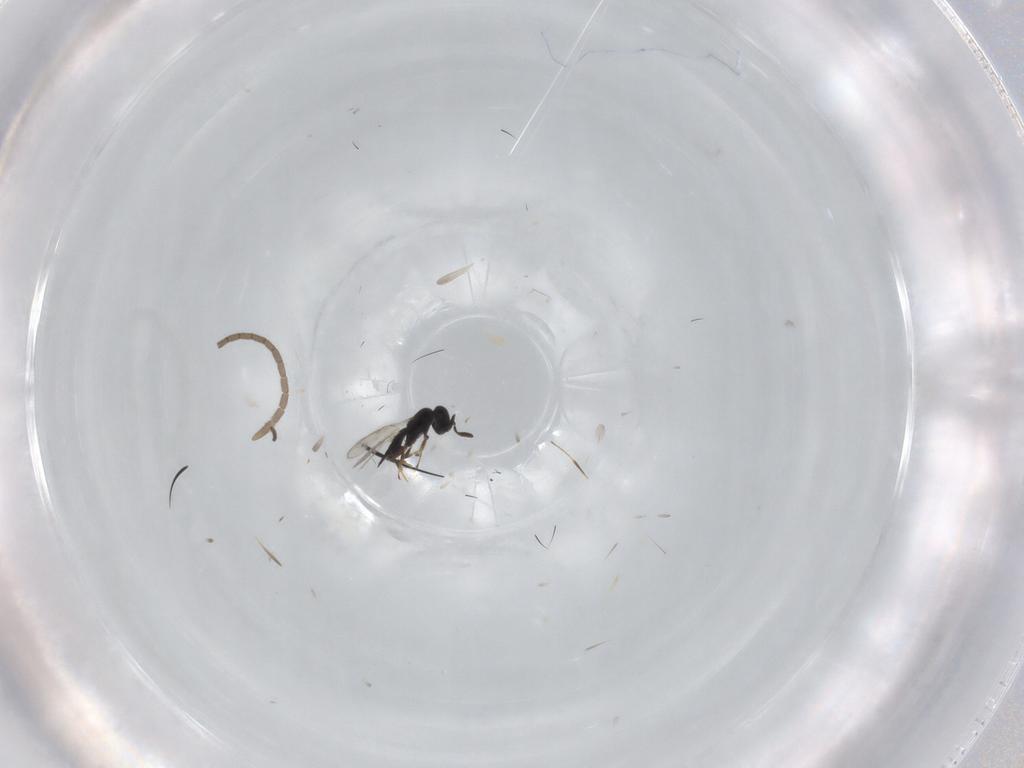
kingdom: Animalia
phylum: Arthropoda
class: Insecta
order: Hymenoptera
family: Scelionidae
